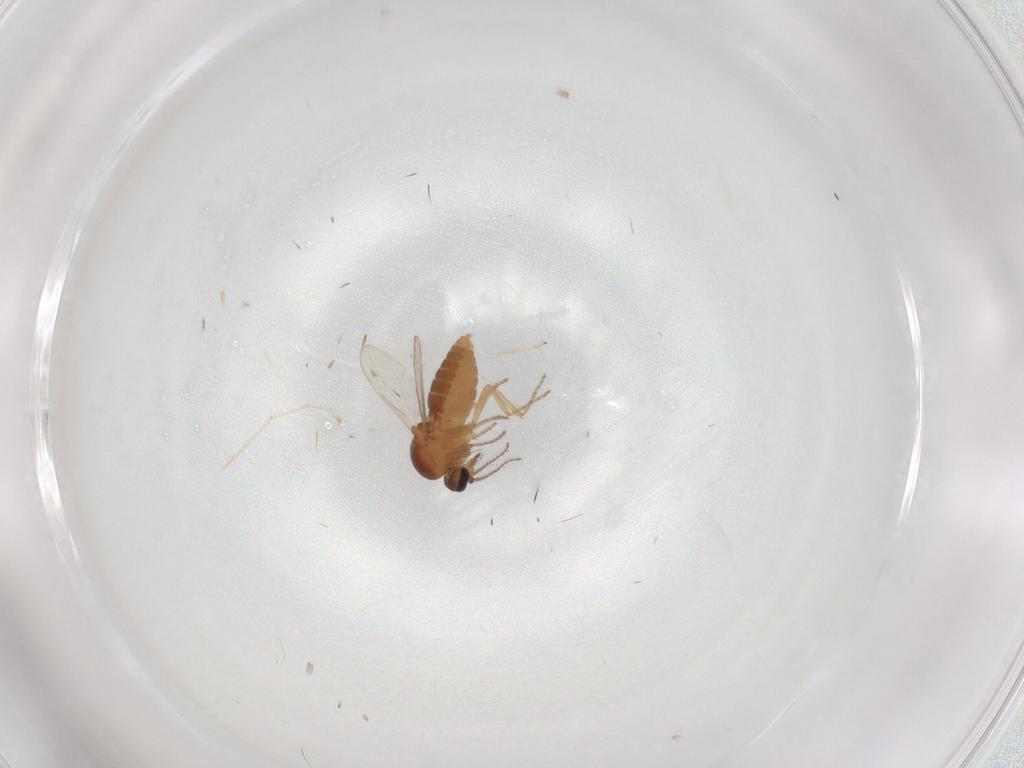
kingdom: Animalia
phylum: Arthropoda
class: Insecta
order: Diptera
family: Ceratopogonidae
